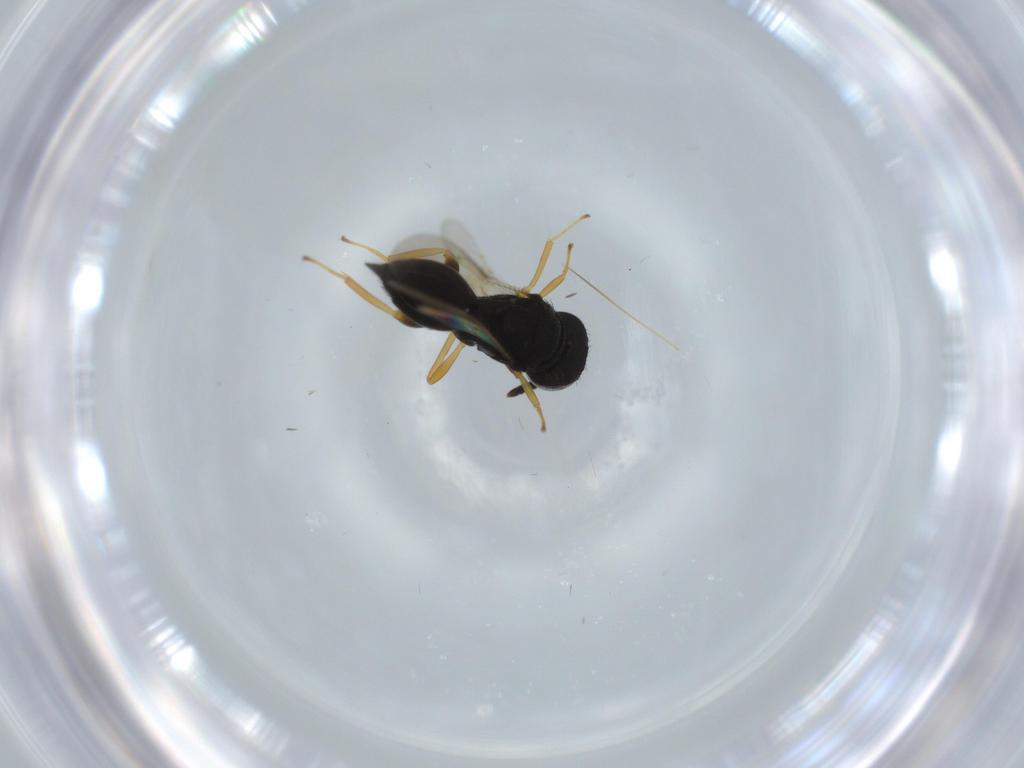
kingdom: Animalia
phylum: Arthropoda
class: Insecta
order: Hymenoptera
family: Pteromalidae
